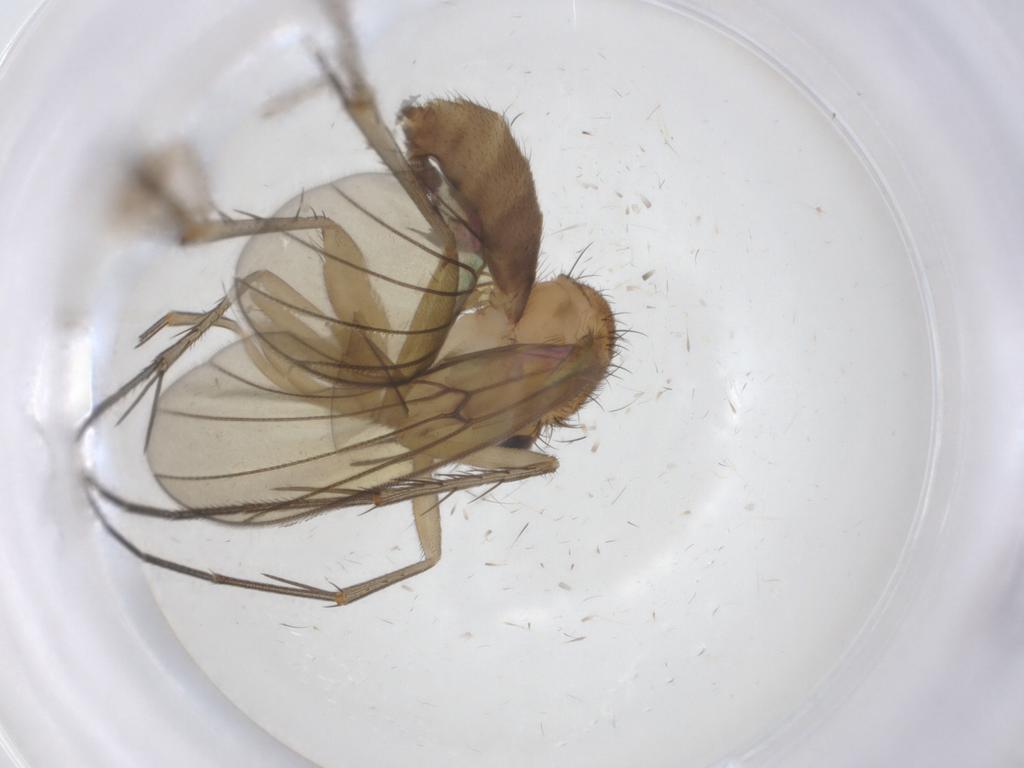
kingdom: Animalia
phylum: Arthropoda
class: Insecta
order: Diptera
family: Mycetophilidae
